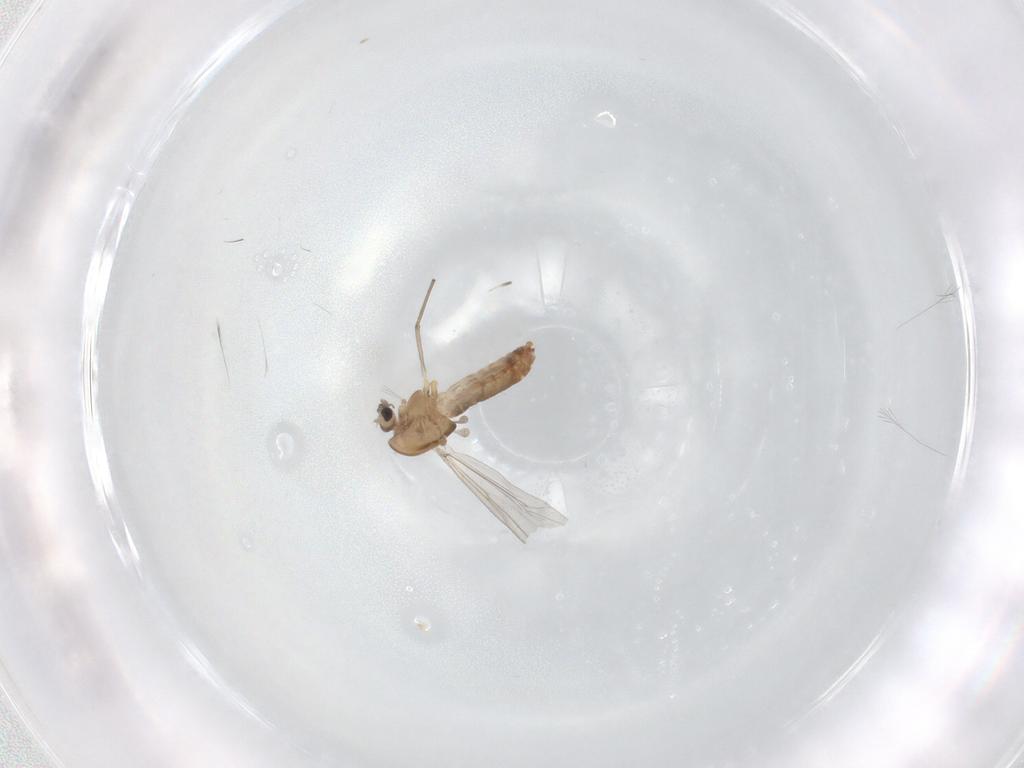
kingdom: Animalia
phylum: Arthropoda
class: Insecta
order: Diptera
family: Chironomidae
